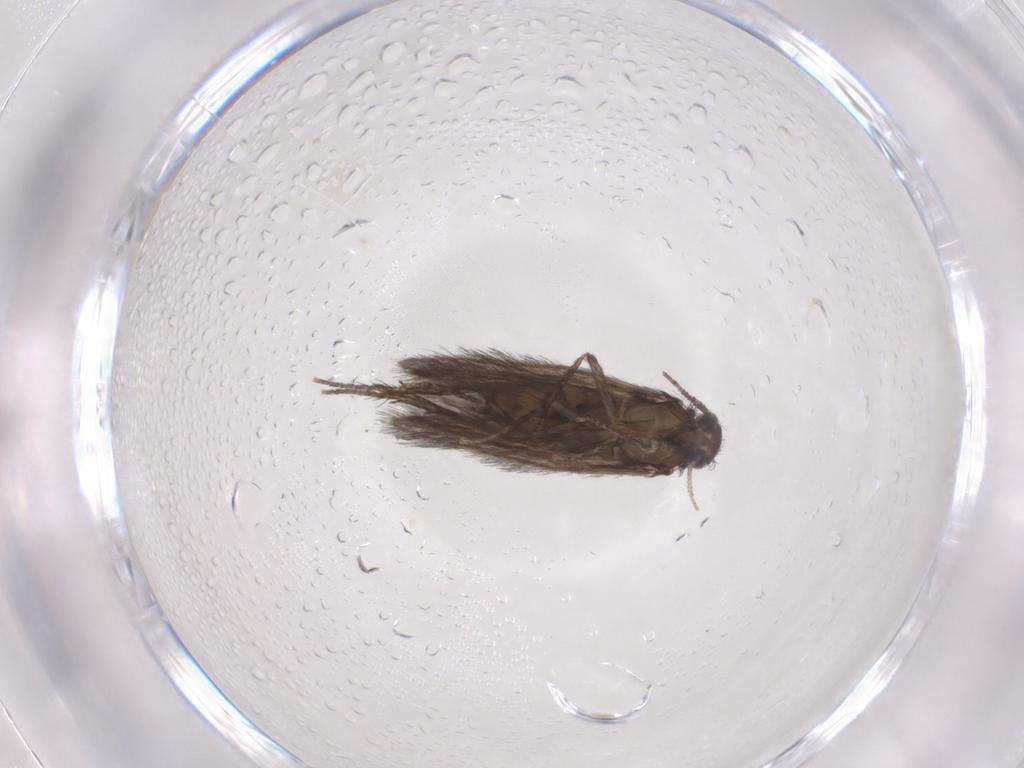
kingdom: Animalia
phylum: Arthropoda
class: Insecta
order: Trichoptera
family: Hydroptilidae
